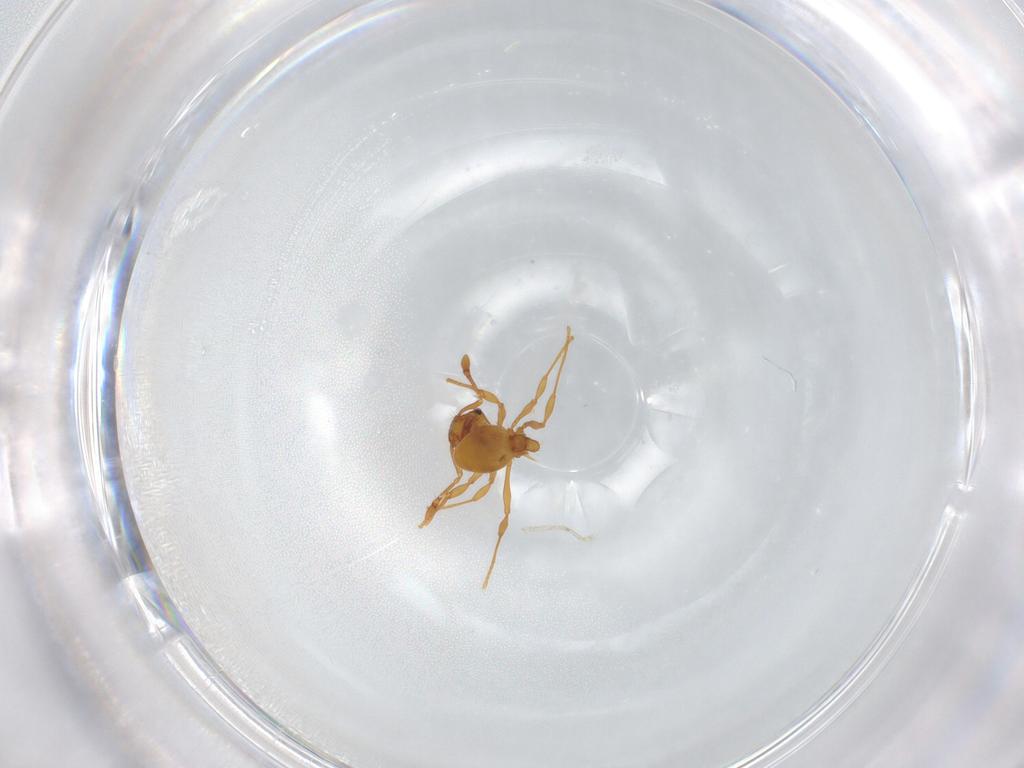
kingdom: Animalia
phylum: Arthropoda
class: Insecta
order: Hymenoptera
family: Formicidae
